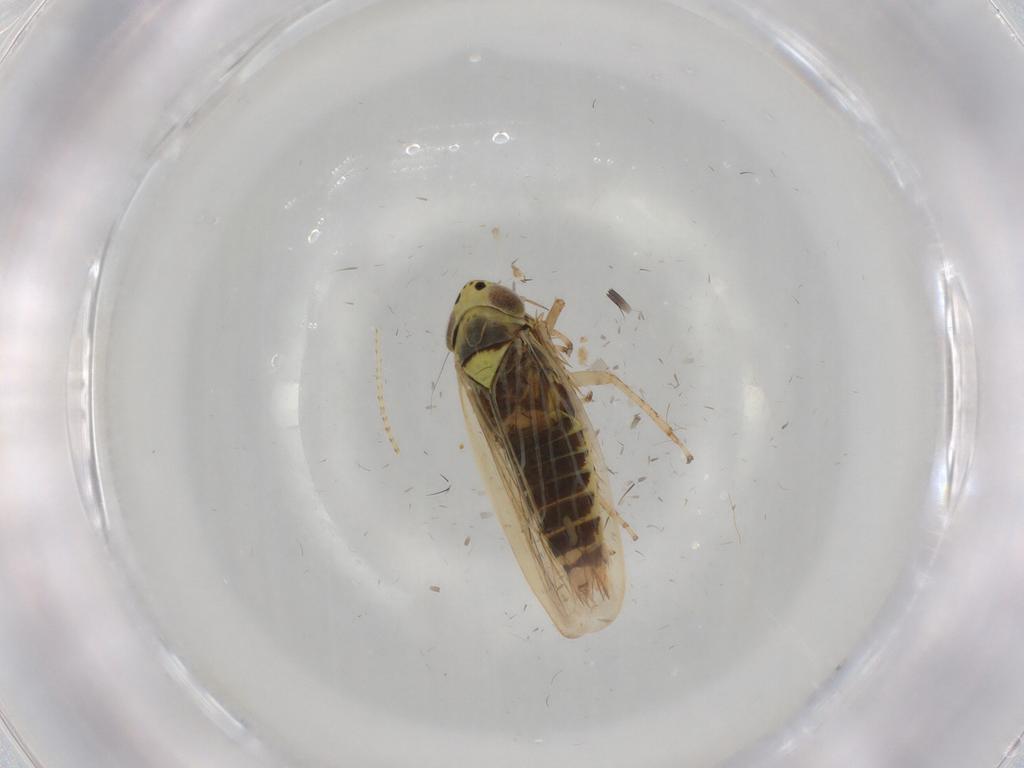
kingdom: Animalia
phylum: Arthropoda
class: Insecta
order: Hemiptera
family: Cicadellidae
